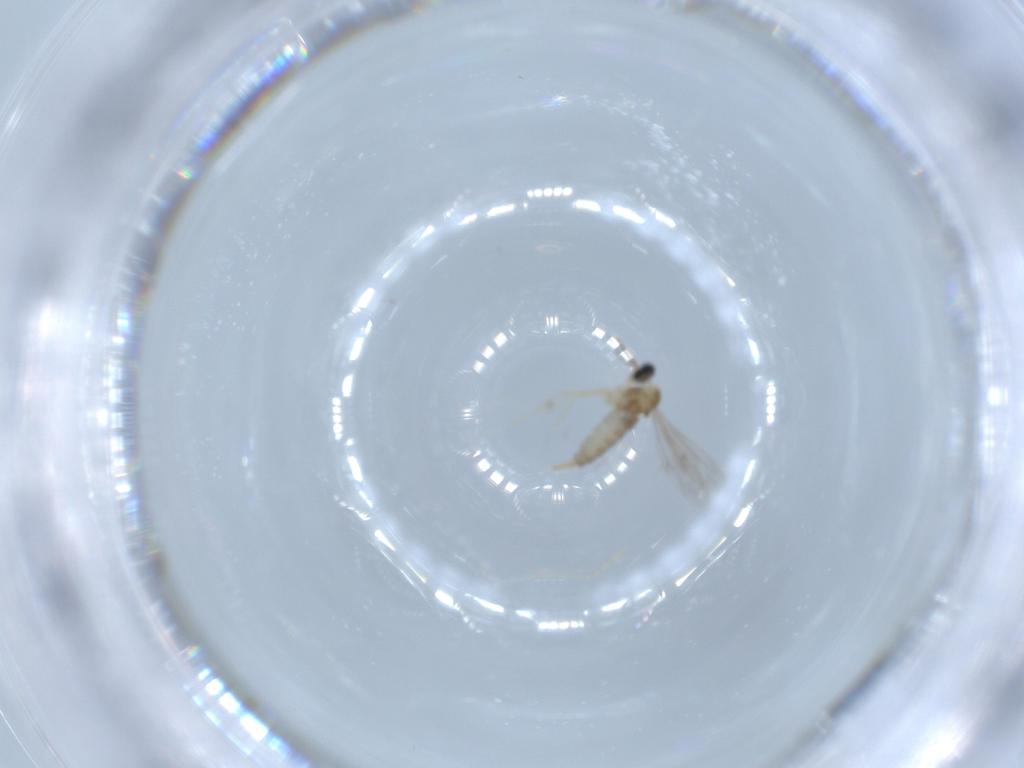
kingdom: Animalia
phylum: Arthropoda
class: Insecta
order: Diptera
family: Cecidomyiidae
